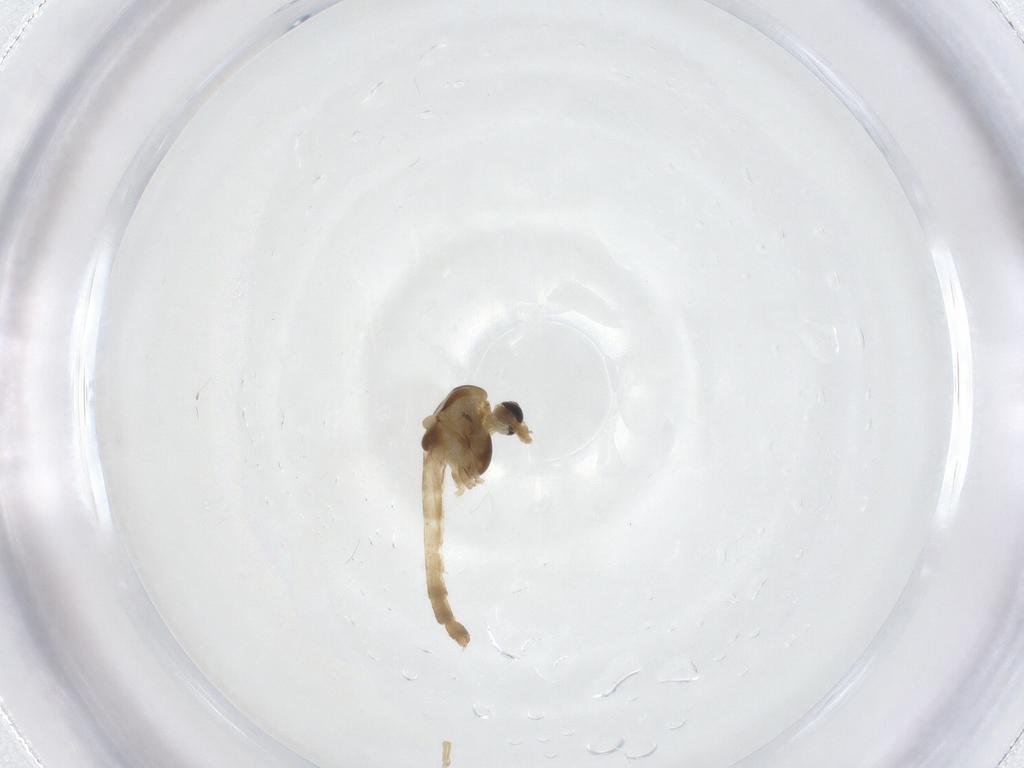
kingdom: Animalia
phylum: Arthropoda
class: Insecta
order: Diptera
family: Chironomidae
